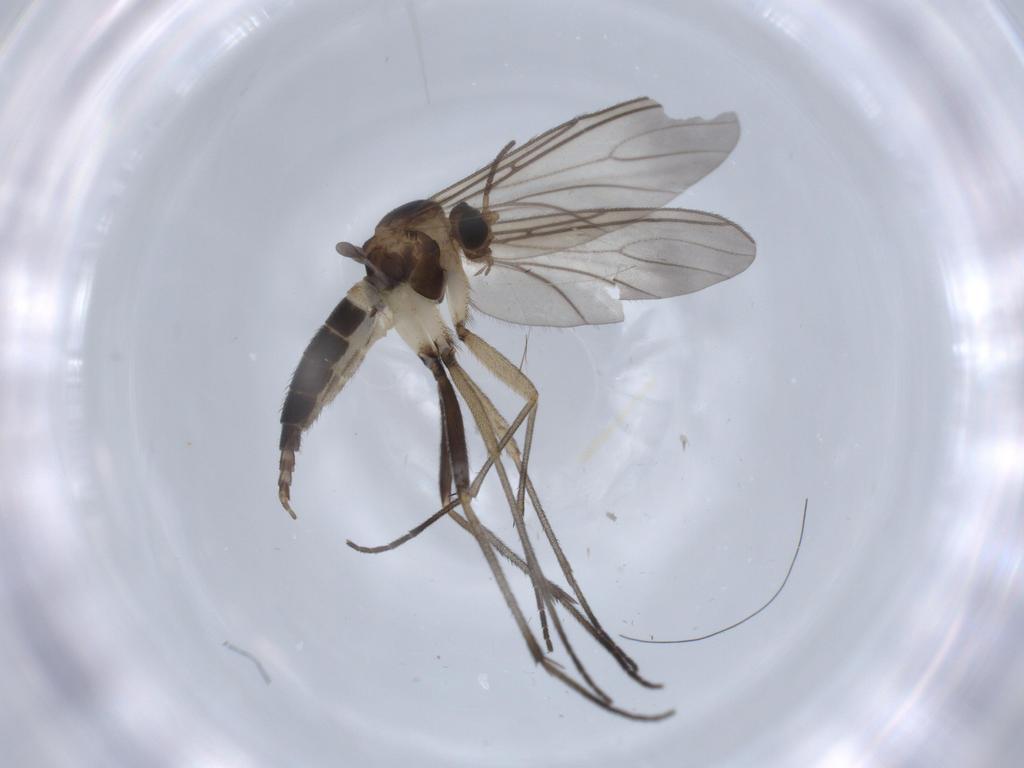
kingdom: Animalia
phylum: Arthropoda
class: Insecta
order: Diptera
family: Sciaridae
